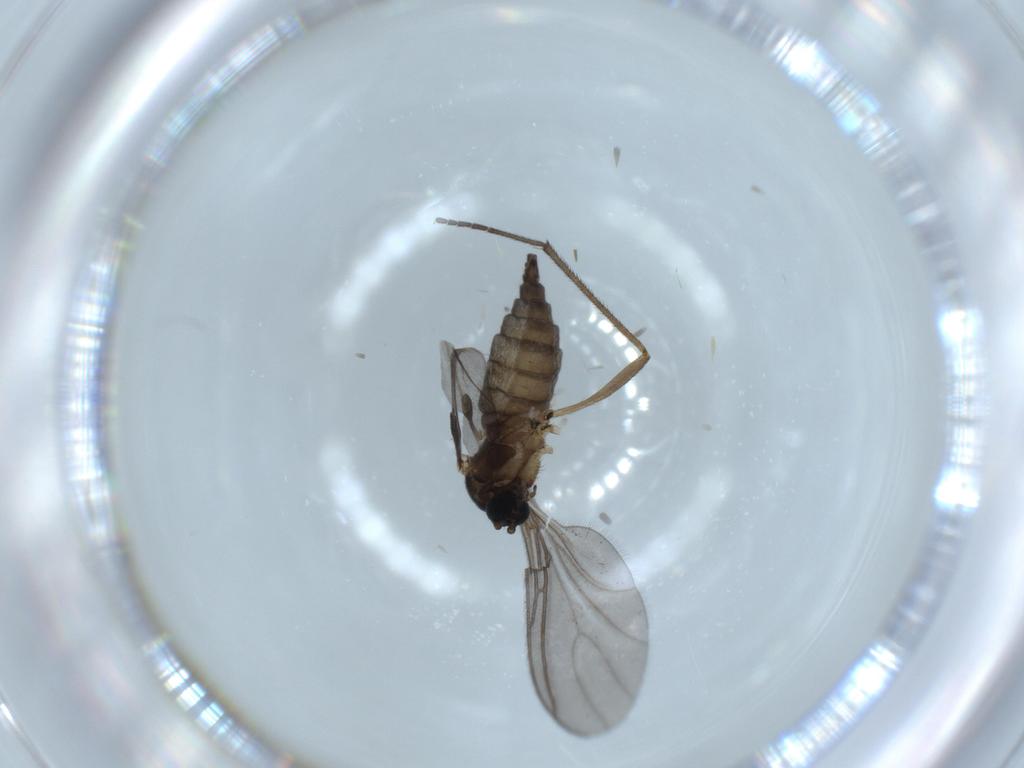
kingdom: Animalia
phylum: Arthropoda
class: Insecta
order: Diptera
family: Sciaridae
